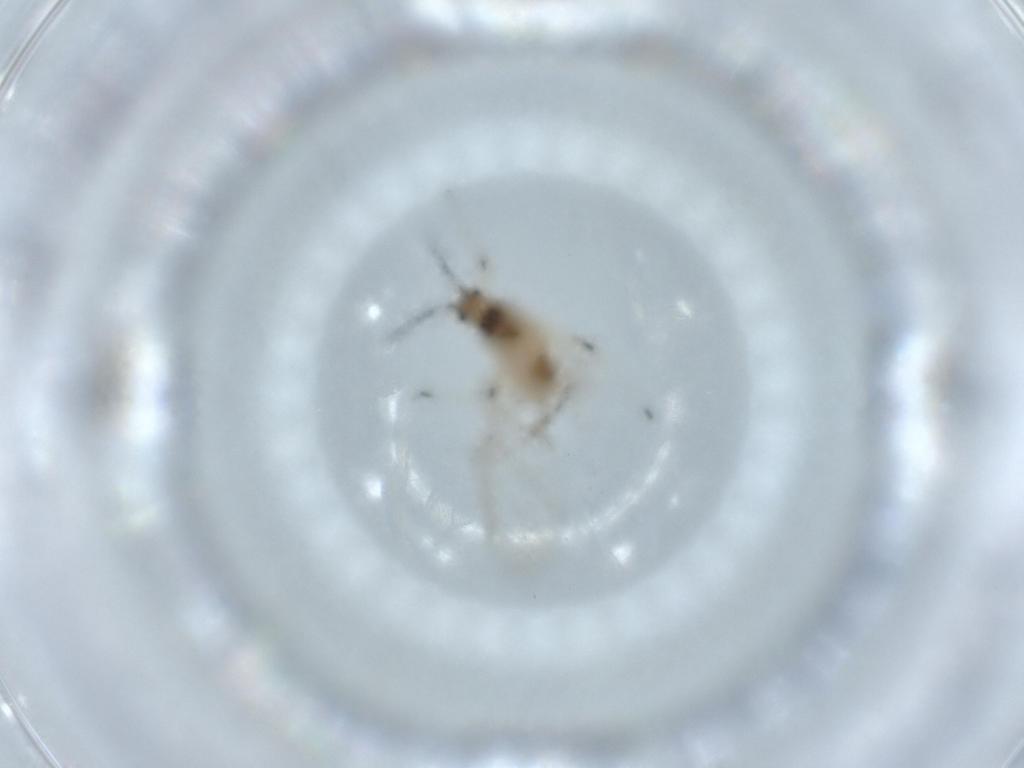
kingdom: Animalia
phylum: Arthropoda
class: Insecta
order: Hemiptera
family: Aphididae
